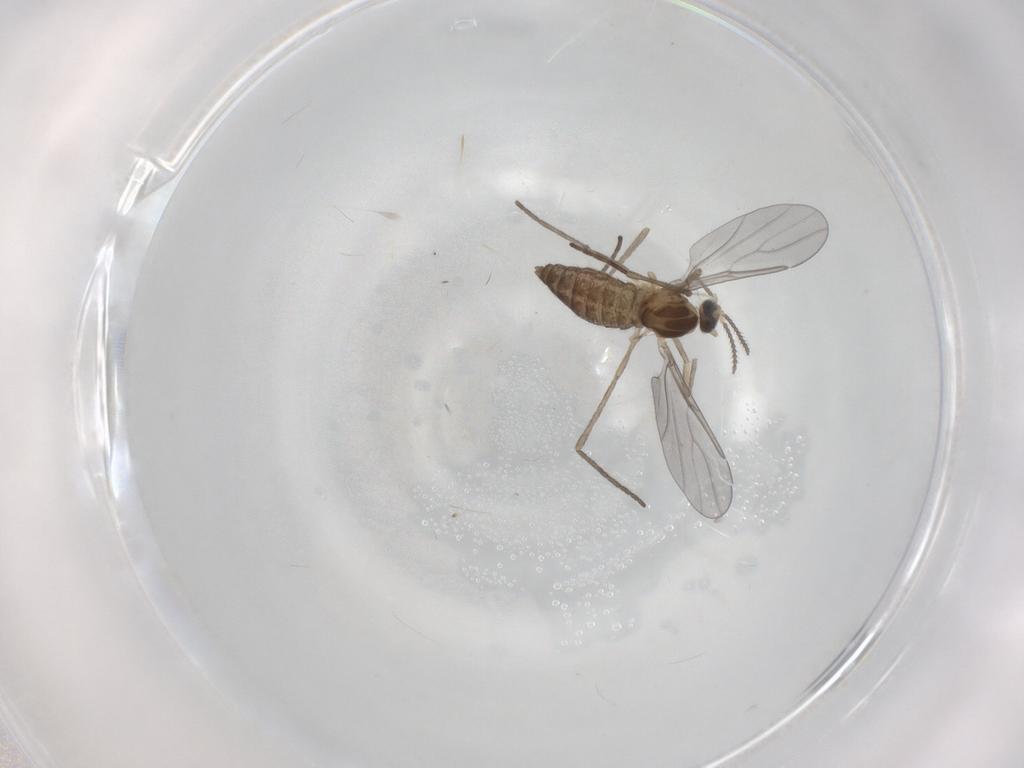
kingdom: Animalia
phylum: Arthropoda
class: Insecta
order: Diptera
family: Cecidomyiidae
